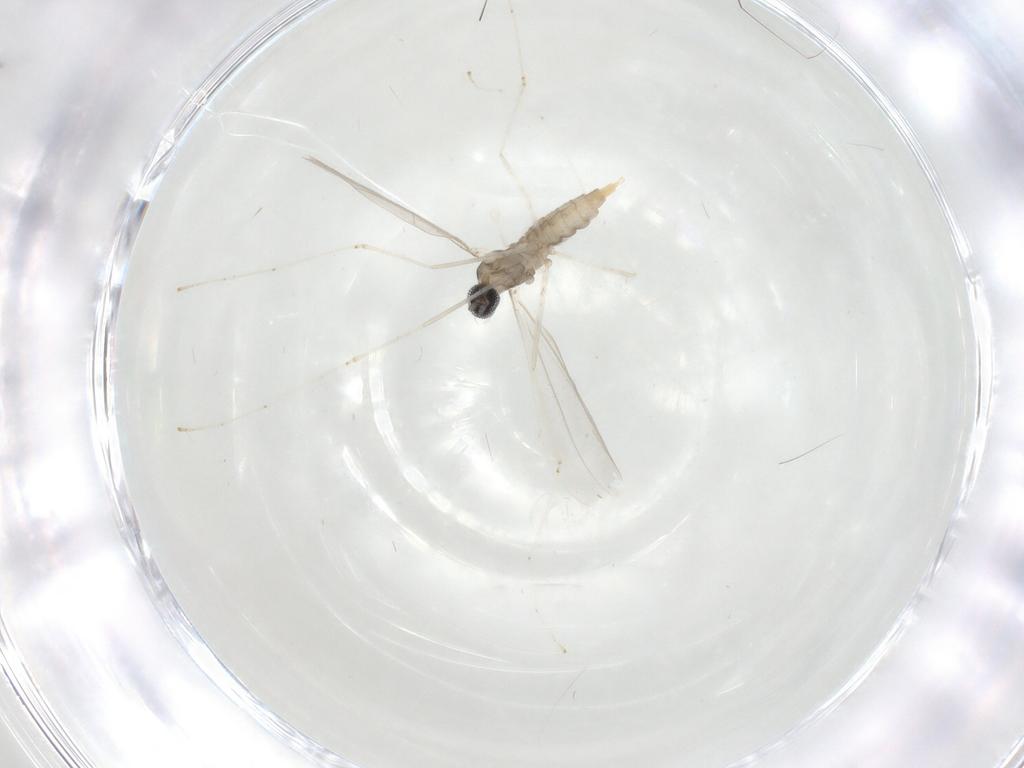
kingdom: Animalia
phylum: Arthropoda
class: Insecta
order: Diptera
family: Cecidomyiidae
